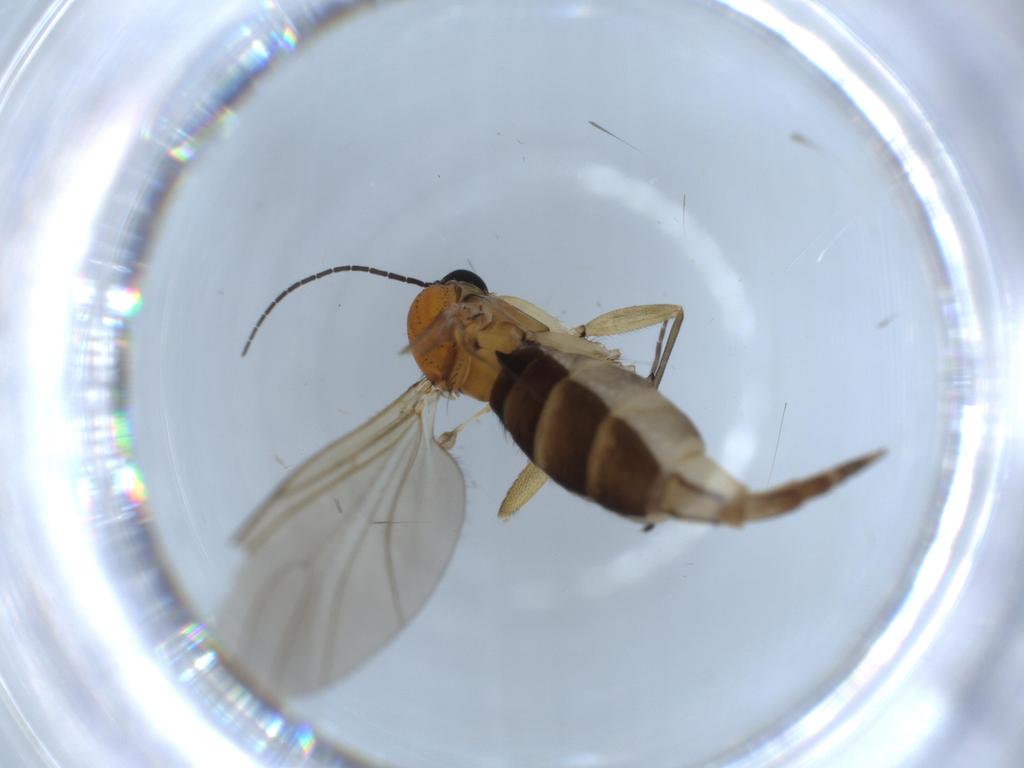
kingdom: Animalia
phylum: Arthropoda
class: Insecta
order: Diptera
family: Sciaridae
